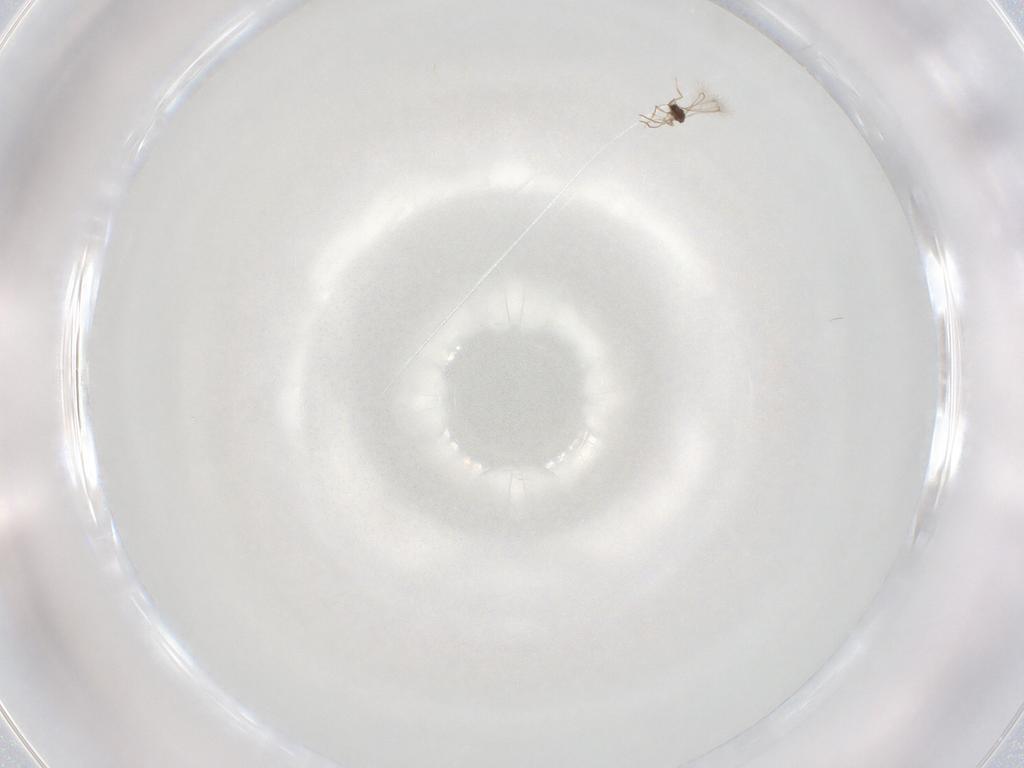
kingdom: Animalia
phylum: Arthropoda
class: Insecta
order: Hymenoptera
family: Mymaridae
